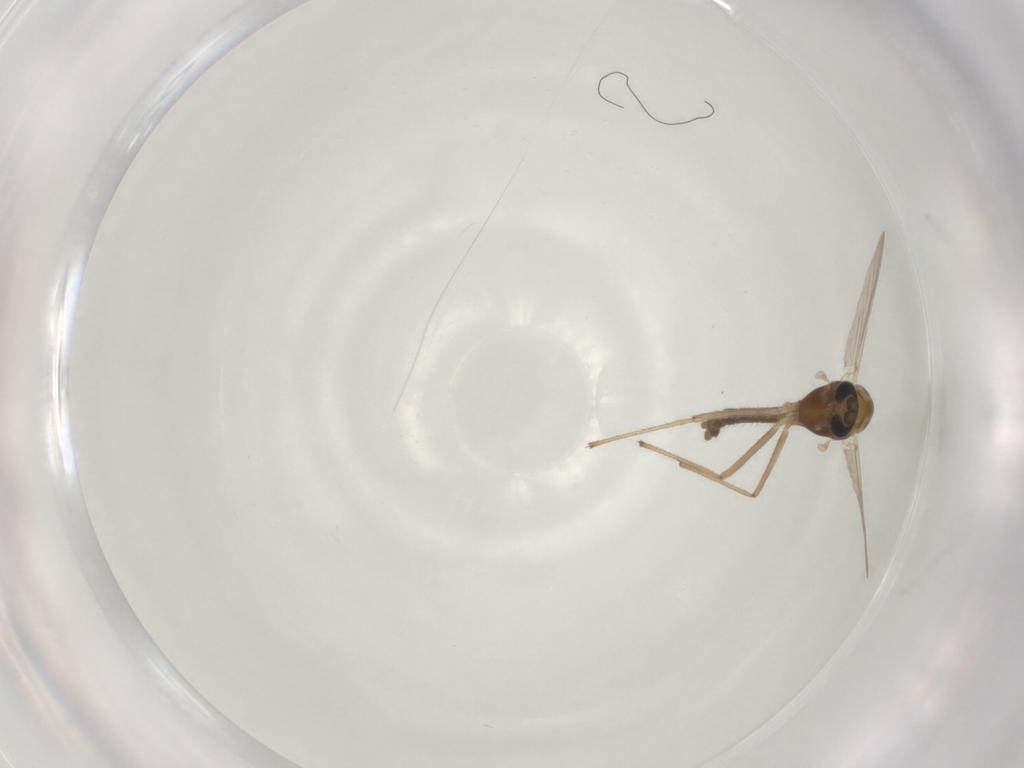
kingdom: Animalia
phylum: Arthropoda
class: Insecta
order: Diptera
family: Chironomidae
